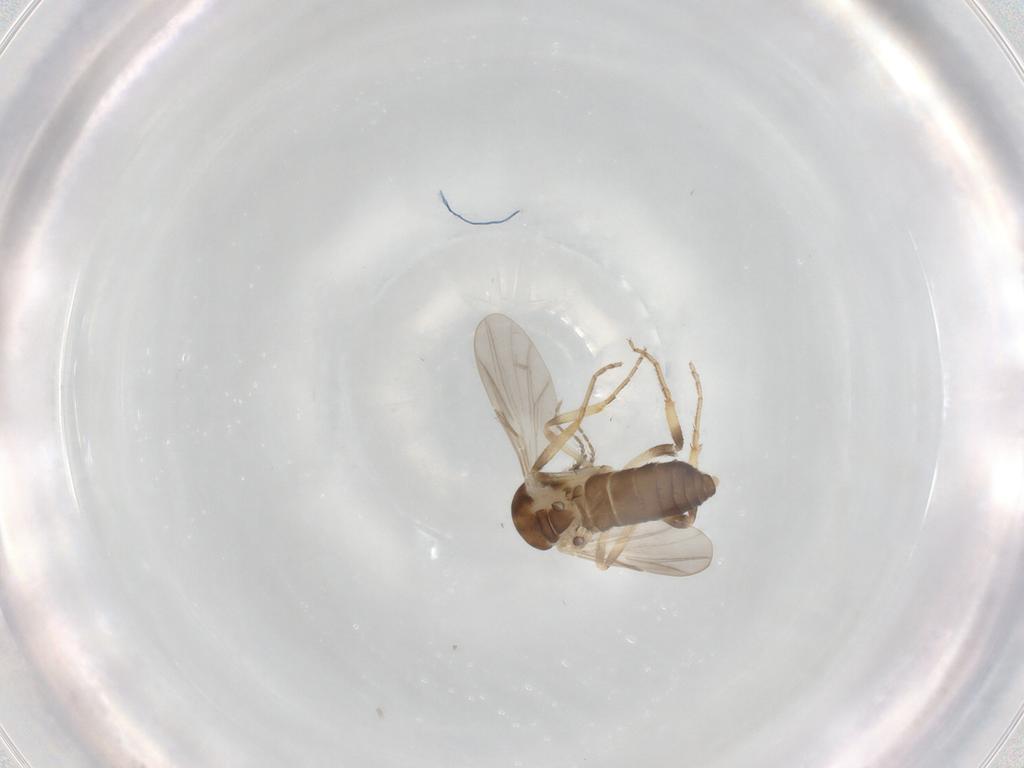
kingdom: Animalia
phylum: Arthropoda
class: Insecta
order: Diptera
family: Ceratopogonidae
